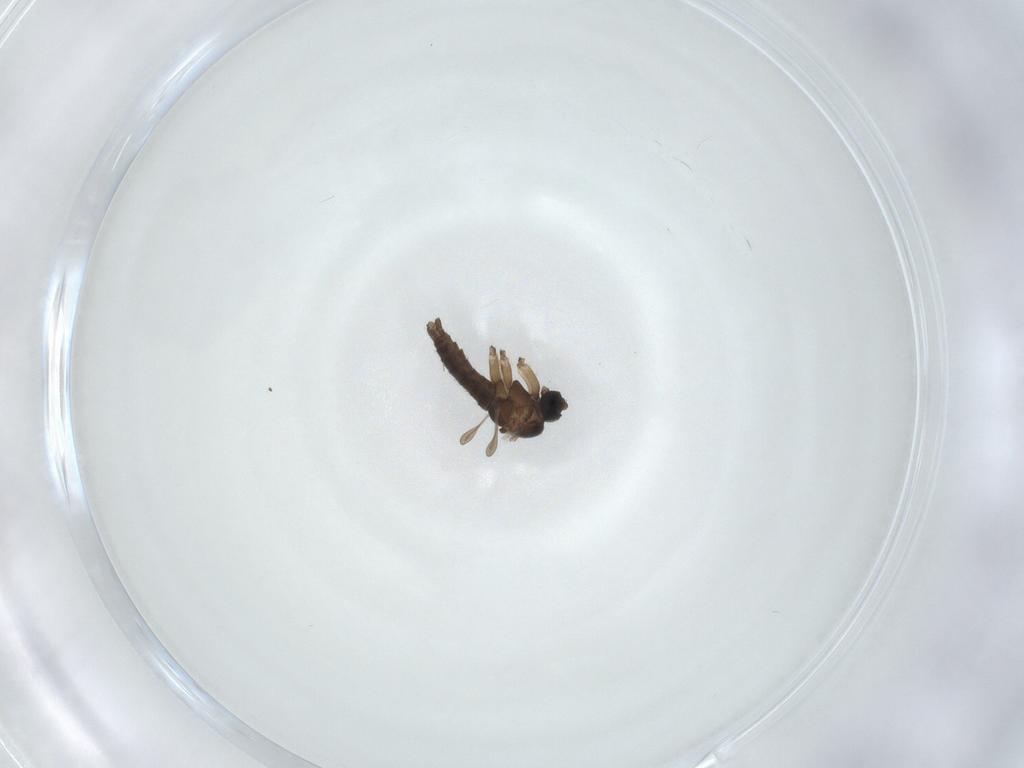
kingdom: Animalia
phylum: Arthropoda
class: Insecta
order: Diptera
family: Sciaridae
